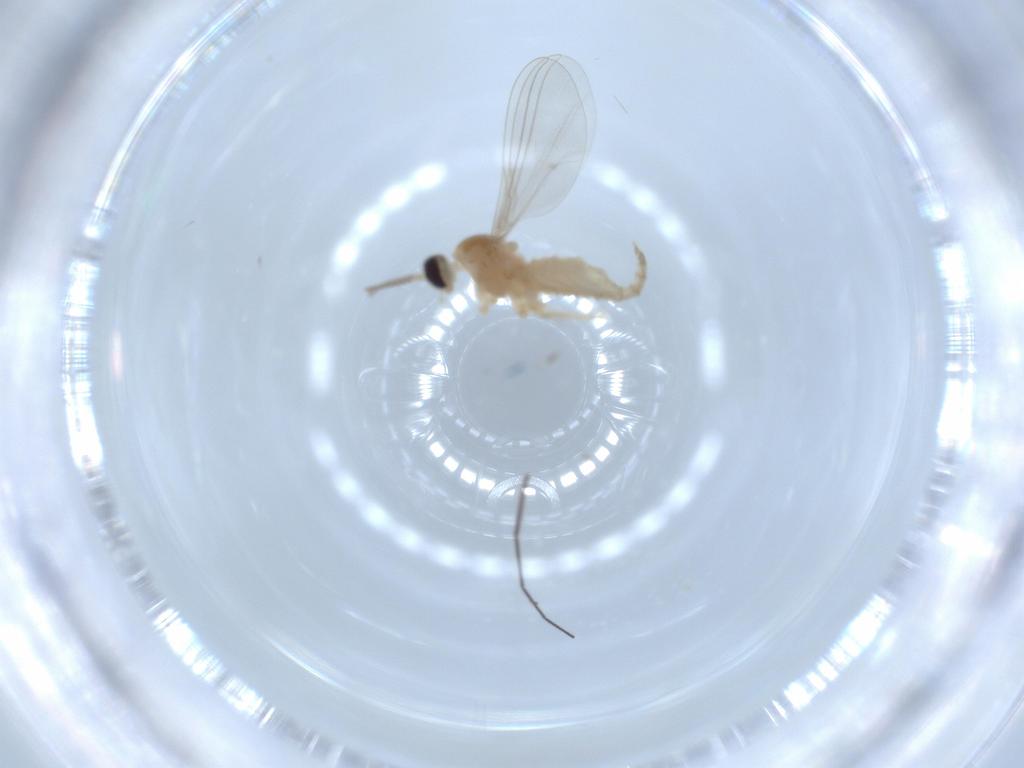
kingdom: Animalia
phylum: Arthropoda
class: Insecta
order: Diptera
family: Cecidomyiidae
